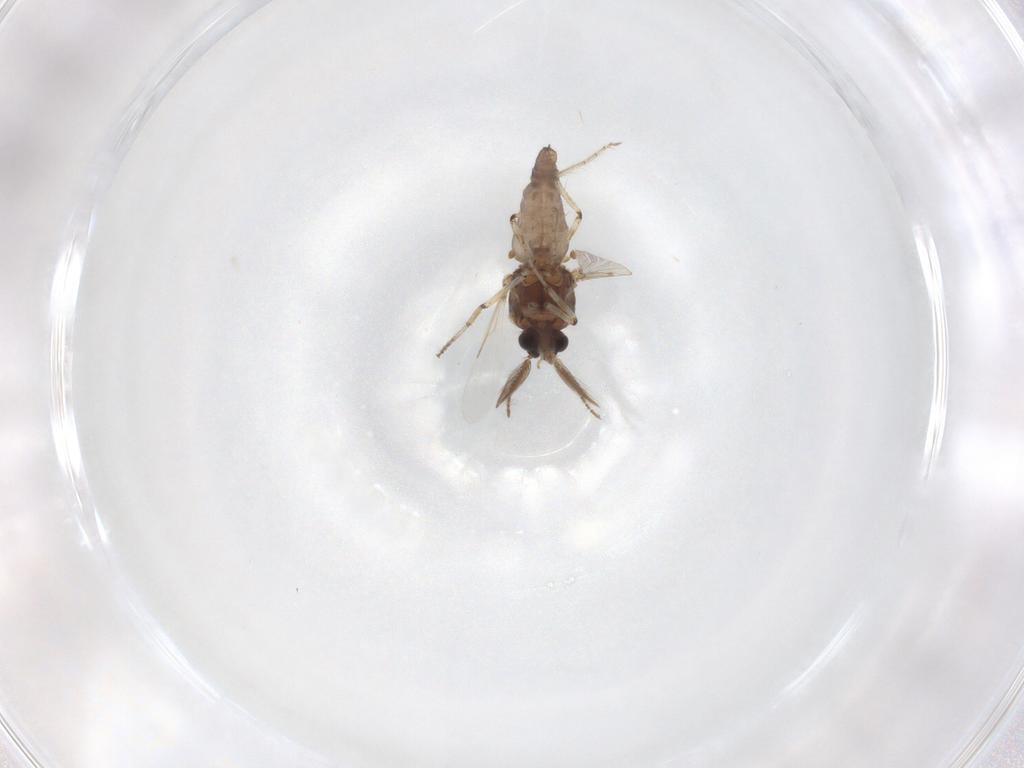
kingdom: Animalia
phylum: Arthropoda
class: Insecta
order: Diptera
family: Ceratopogonidae
